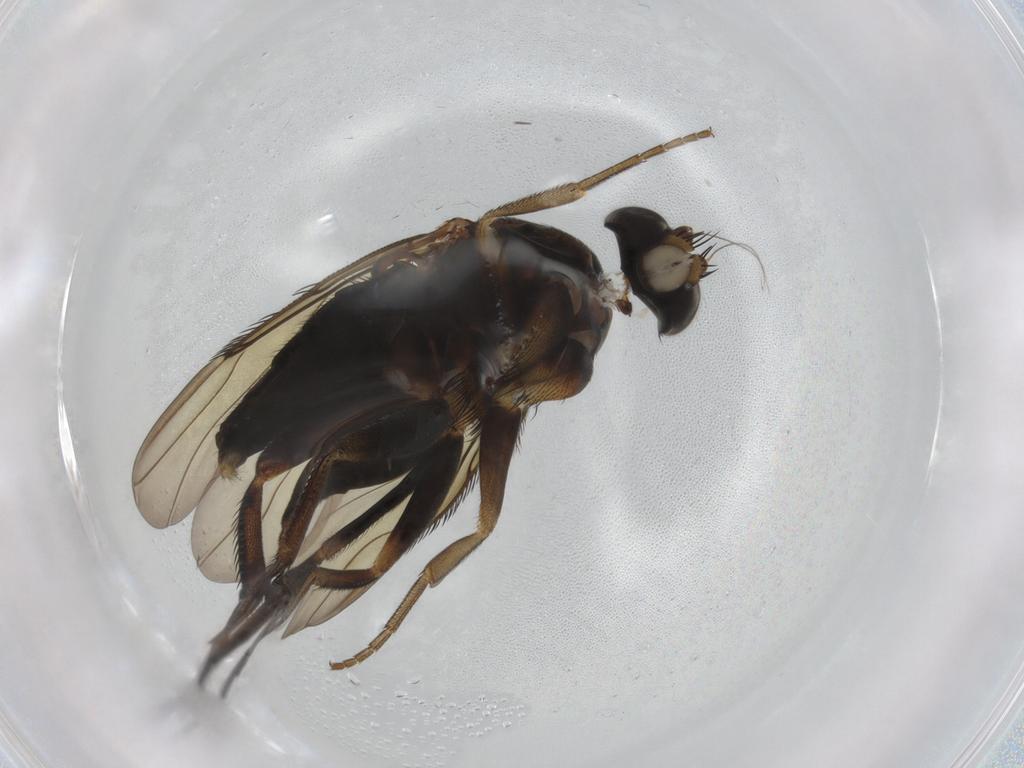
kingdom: Animalia
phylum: Arthropoda
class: Insecta
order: Diptera
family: Phoridae
